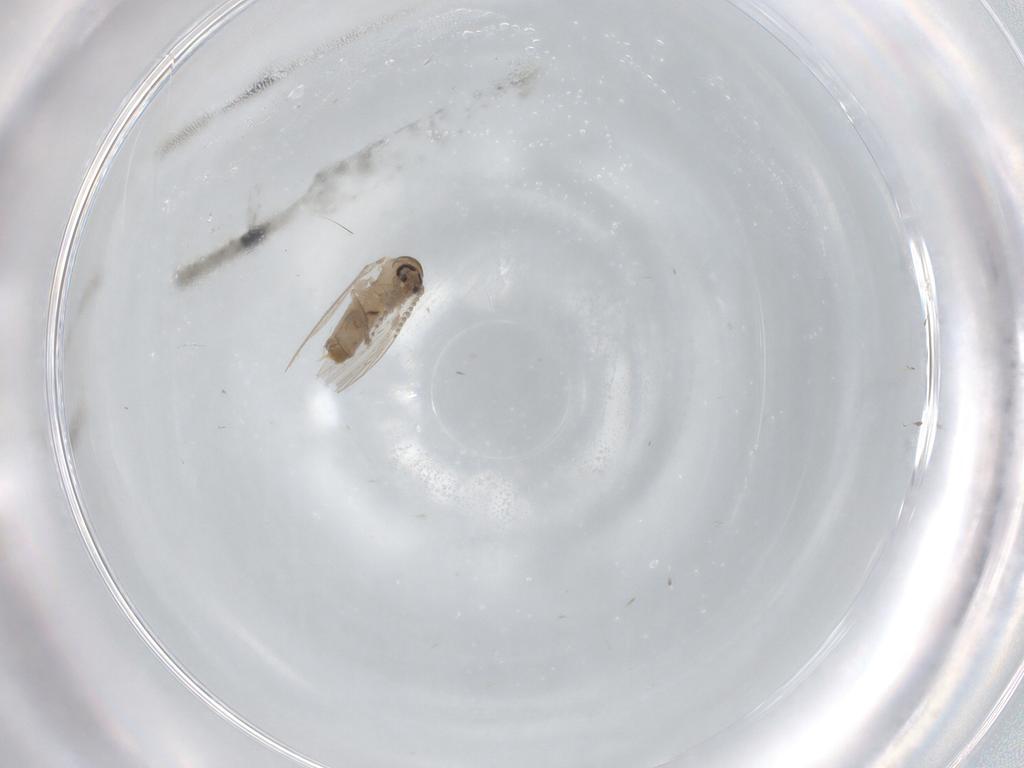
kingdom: Animalia
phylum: Arthropoda
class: Insecta
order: Diptera
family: Psychodidae
